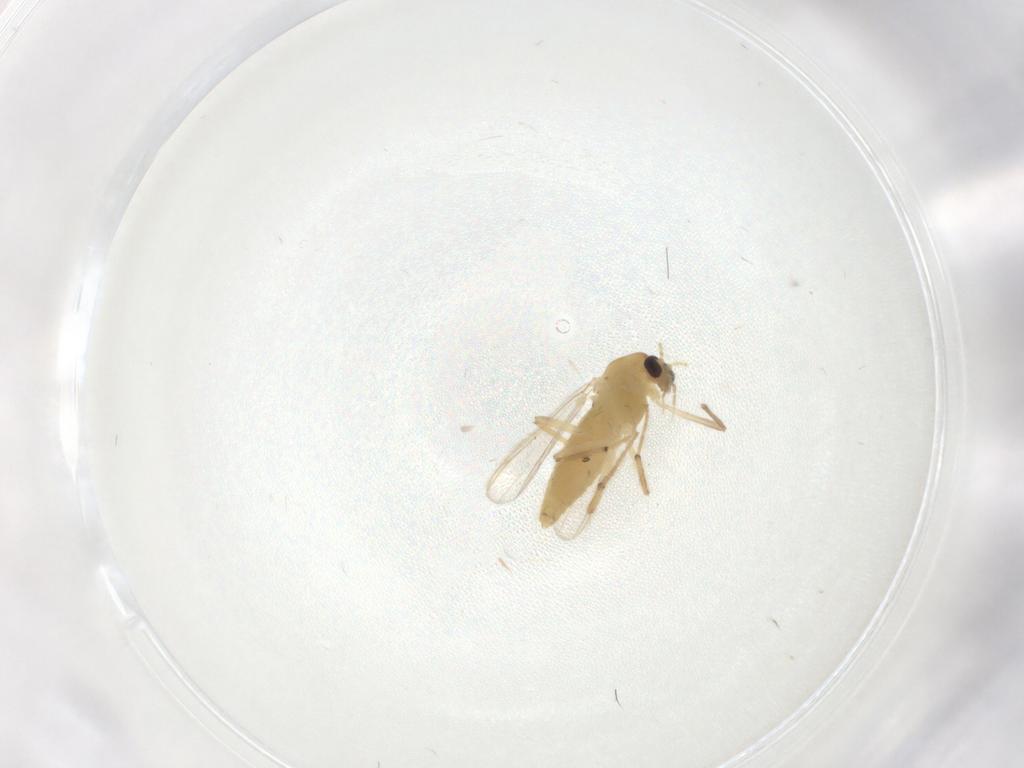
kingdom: Animalia
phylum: Arthropoda
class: Insecta
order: Diptera
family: Chironomidae
